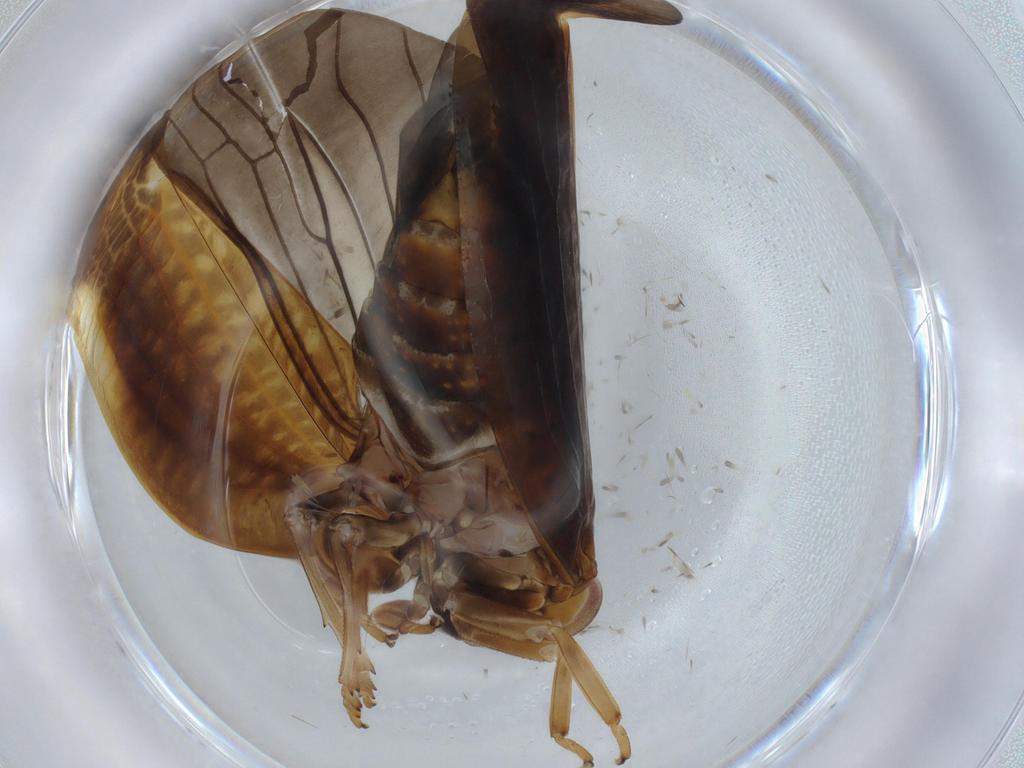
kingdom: Animalia
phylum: Arthropoda
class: Insecta
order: Hemiptera
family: Nogodinidae
